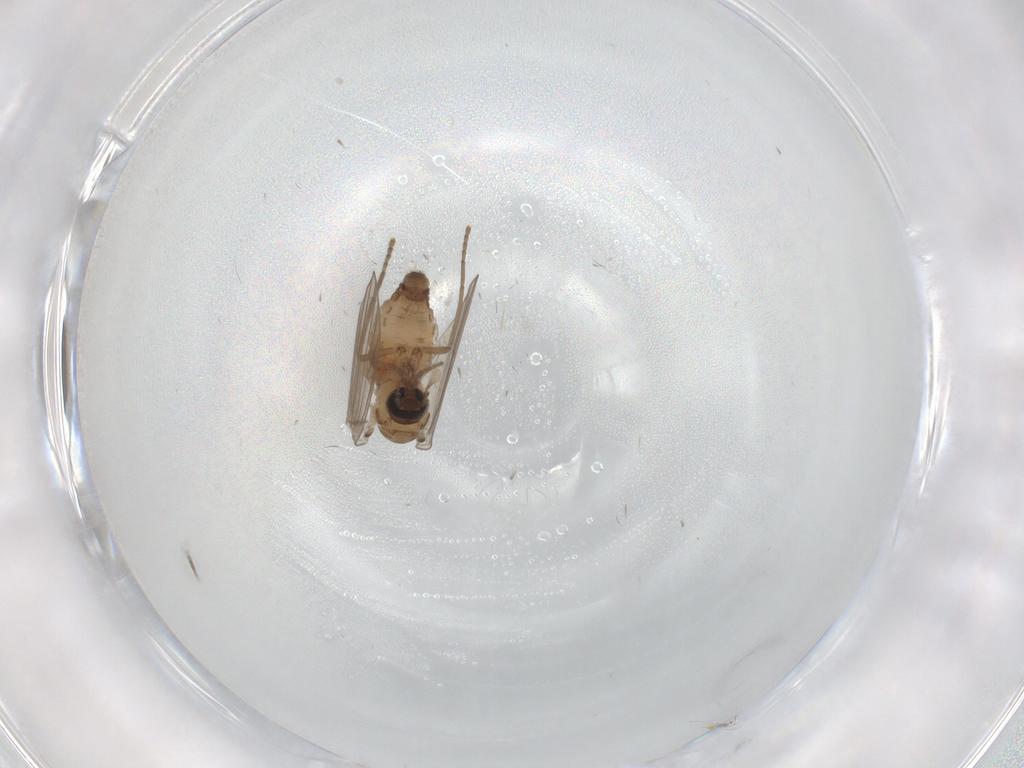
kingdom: Animalia
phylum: Arthropoda
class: Insecta
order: Diptera
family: Psychodidae
